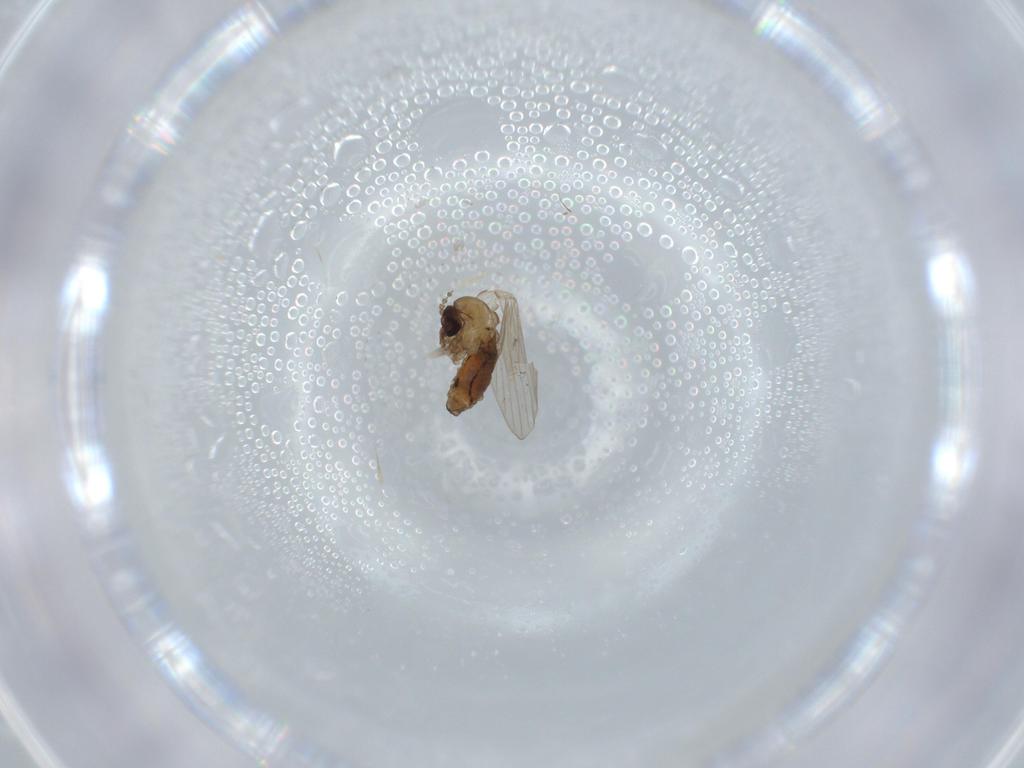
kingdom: Animalia
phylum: Arthropoda
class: Insecta
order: Diptera
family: Psychodidae
